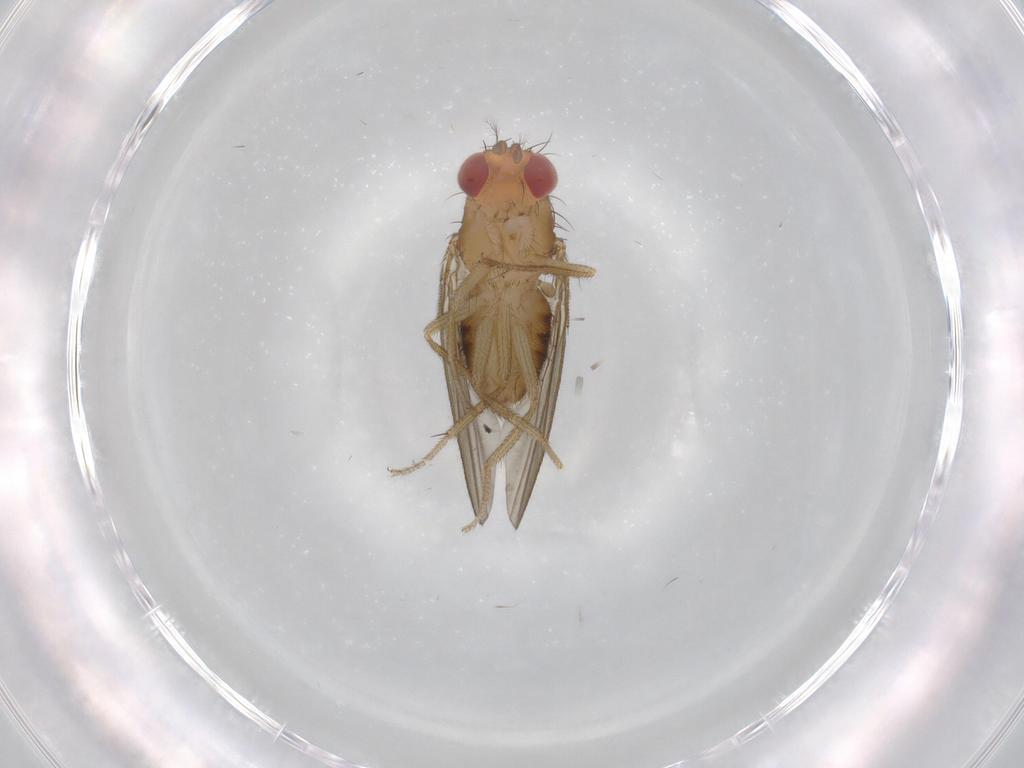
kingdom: Animalia
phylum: Arthropoda
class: Insecta
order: Diptera
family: Drosophilidae
